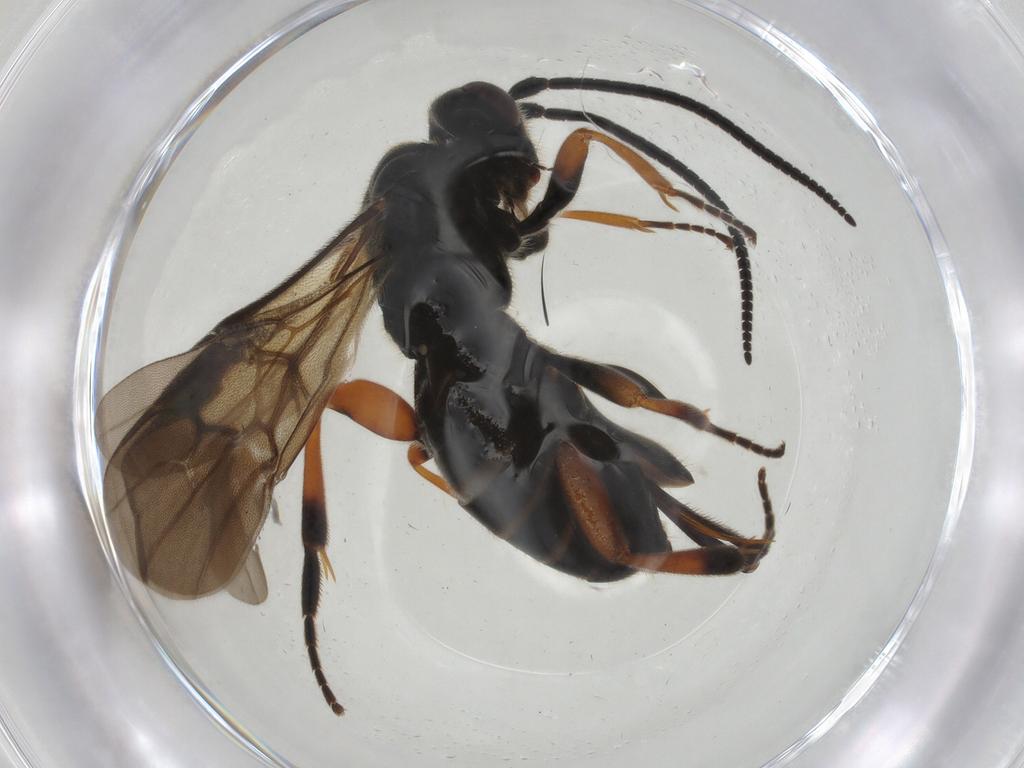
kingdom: Animalia
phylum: Arthropoda
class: Insecta
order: Hymenoptera
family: Braconidae
